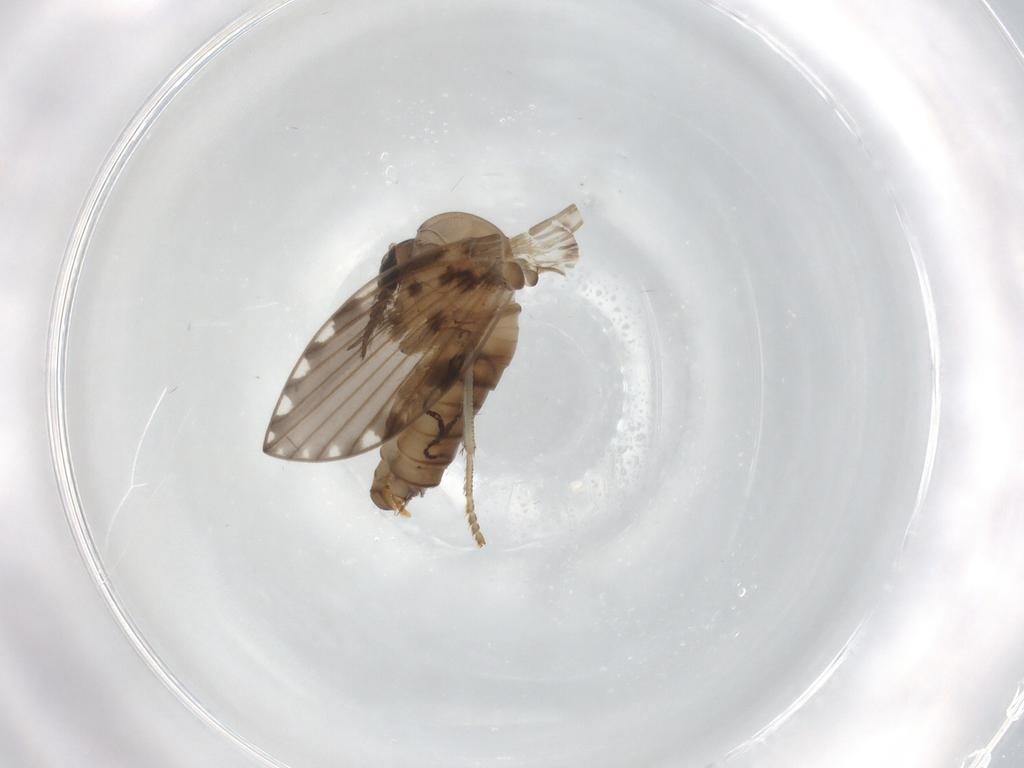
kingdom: Animalia
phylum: Arthropoda
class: Insecta
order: Diptera
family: Psychodidae
